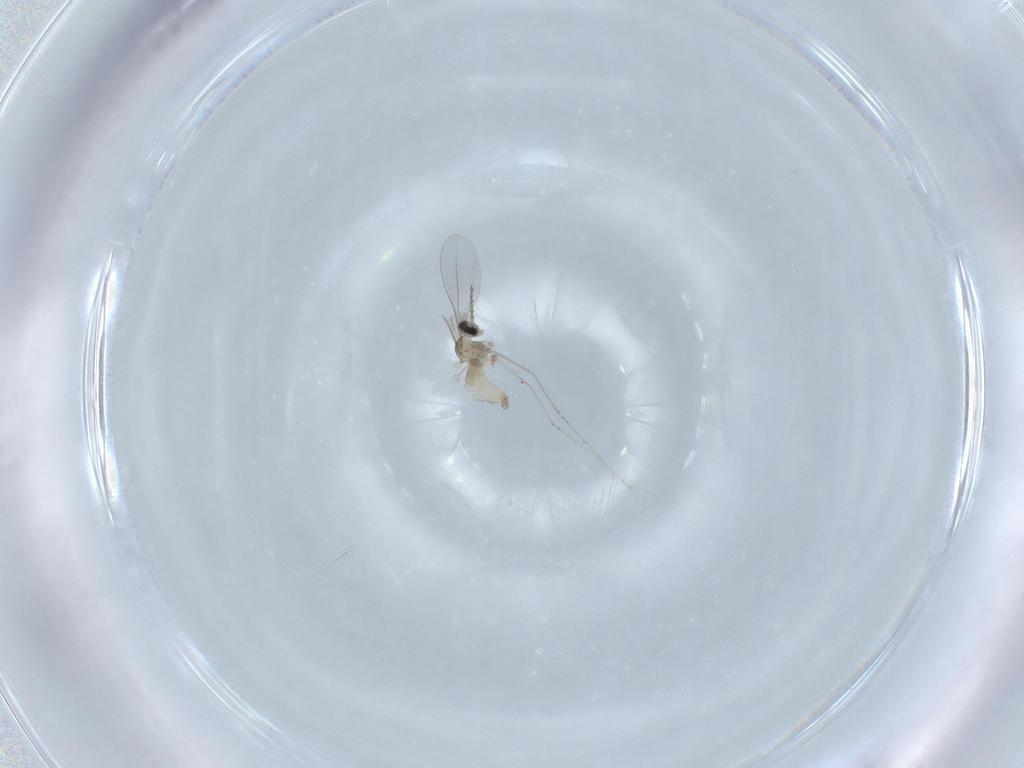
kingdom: Animalia
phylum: Arthropoda
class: Insecta
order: Diptera
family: Cecidomyiidae
